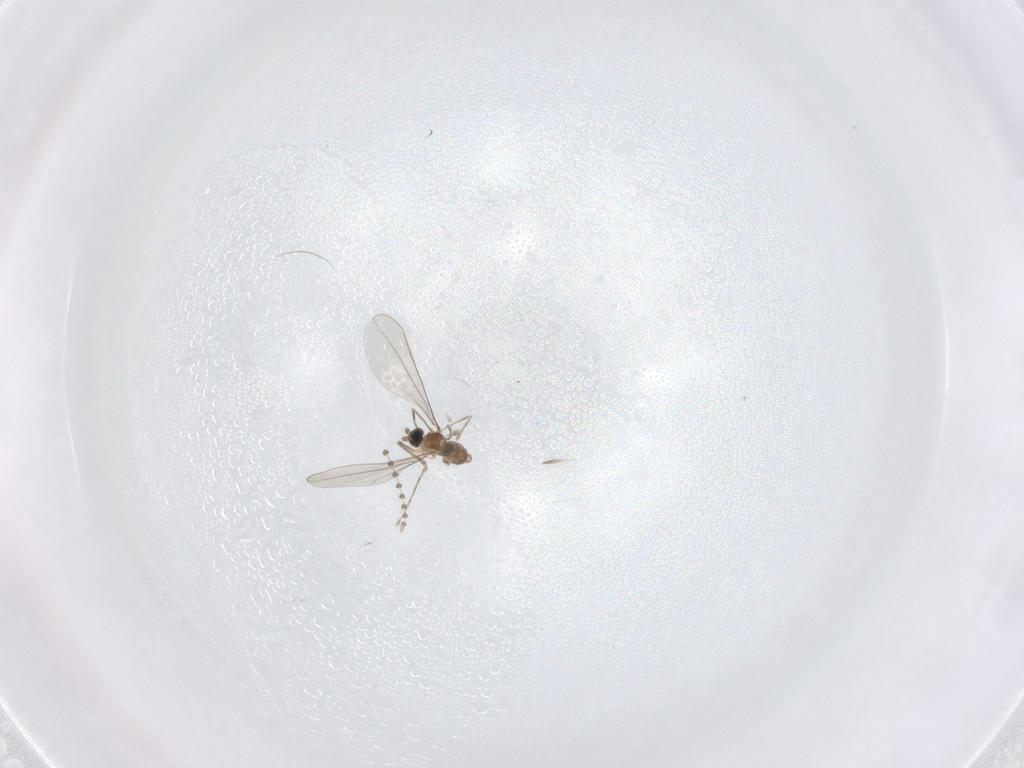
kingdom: Animalia
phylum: Arthropoda
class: Insecta
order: Diptera
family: Cecidomyiidae
